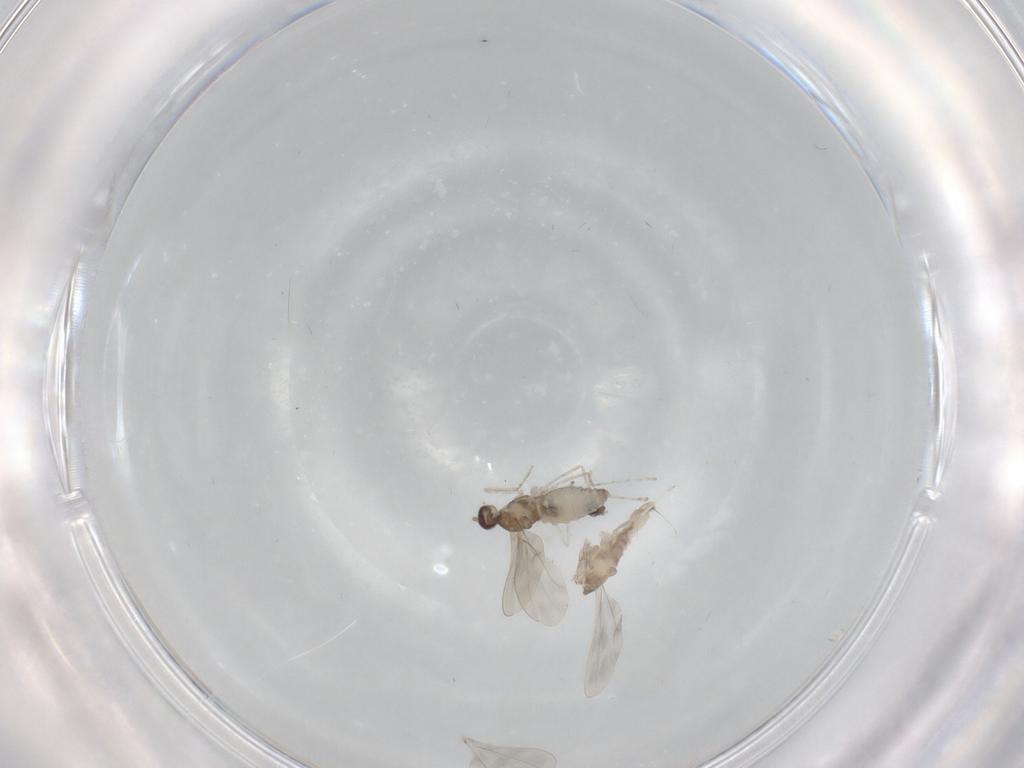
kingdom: Animalia
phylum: Arthropoda
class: Insecta
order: Diptera
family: Cecidomyiidae
